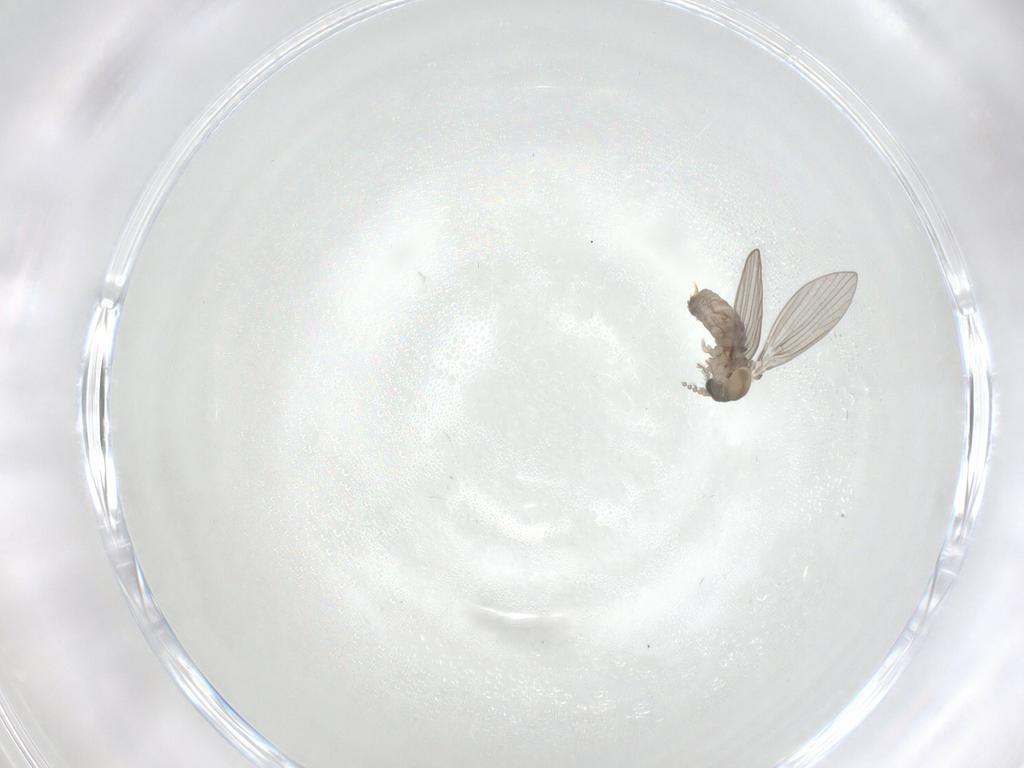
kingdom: Animalia
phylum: Arthropoda
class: Insecta
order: Diptera
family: Psychodidae
